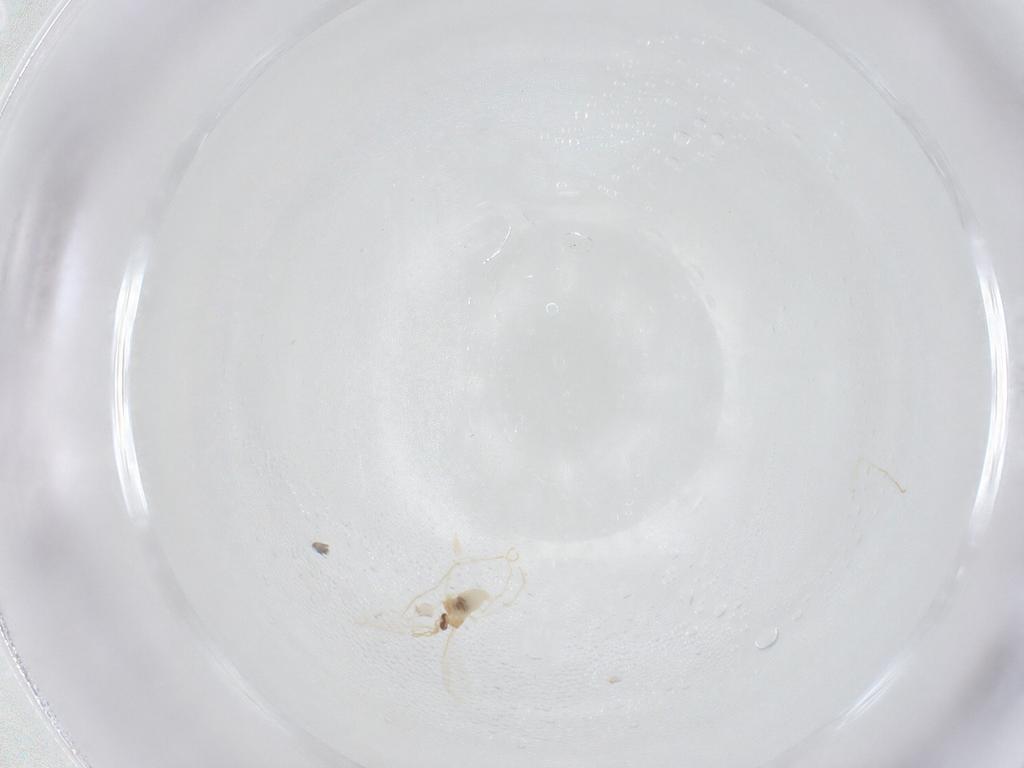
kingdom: Animalia
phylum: Arthropoda
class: Insecta
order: Diptera
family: Cecidomyiidae
